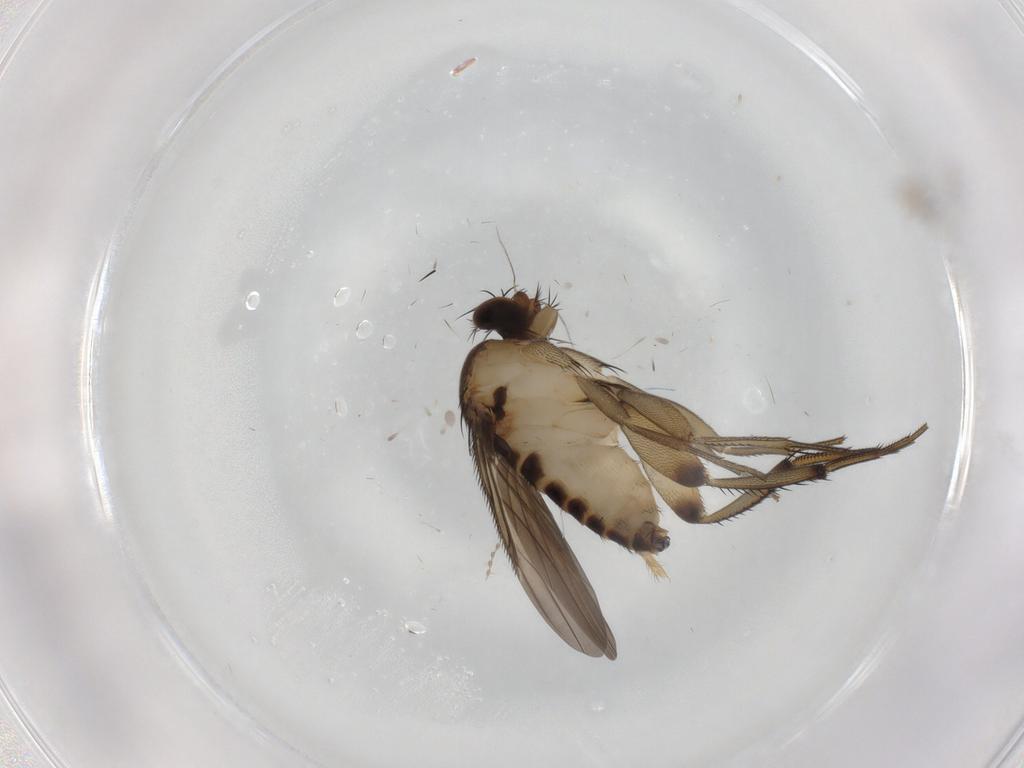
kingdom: Animalia
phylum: Arthropoda
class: Insecta
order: Diptera
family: Phoridae
